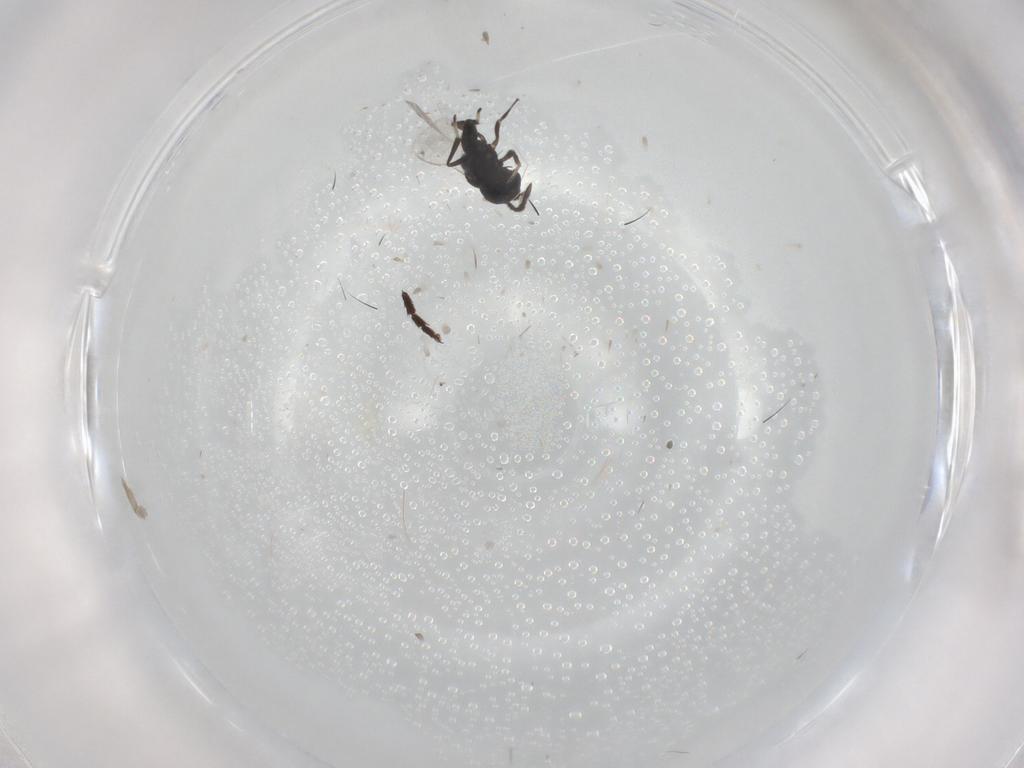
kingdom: Animalia
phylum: Arthropoda
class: Insecta
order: Hymenoptera
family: Eupelmidae
